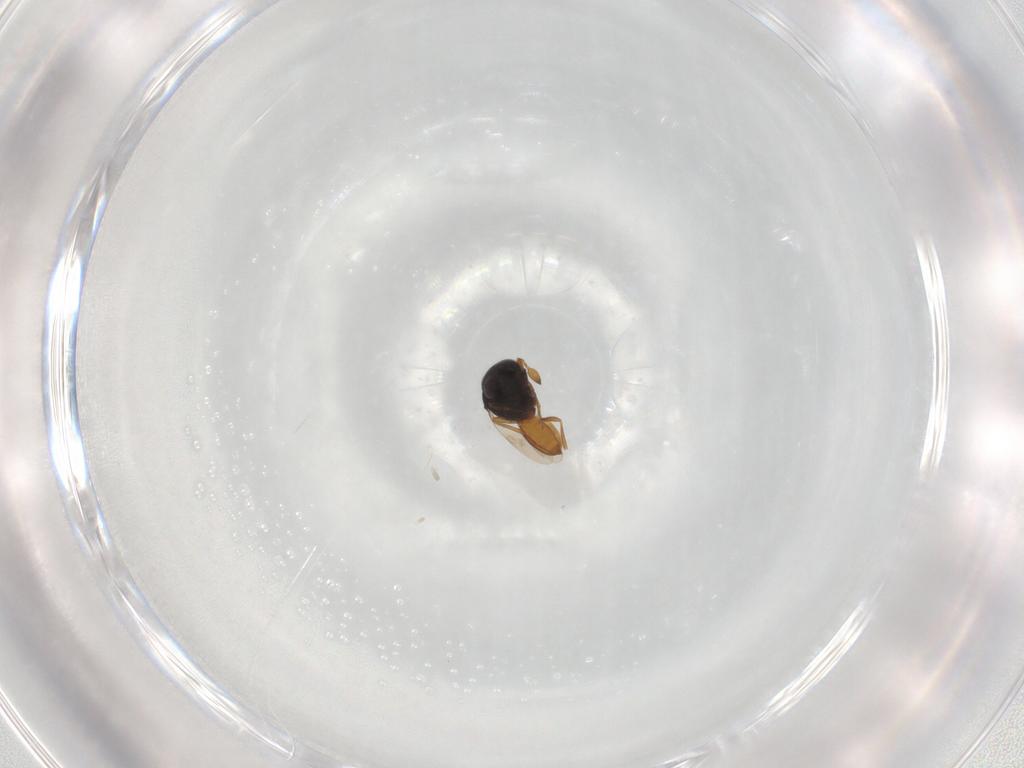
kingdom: Animalia
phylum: Arthropoda
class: Insecta
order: Hymenoptera
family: Scelionidae
